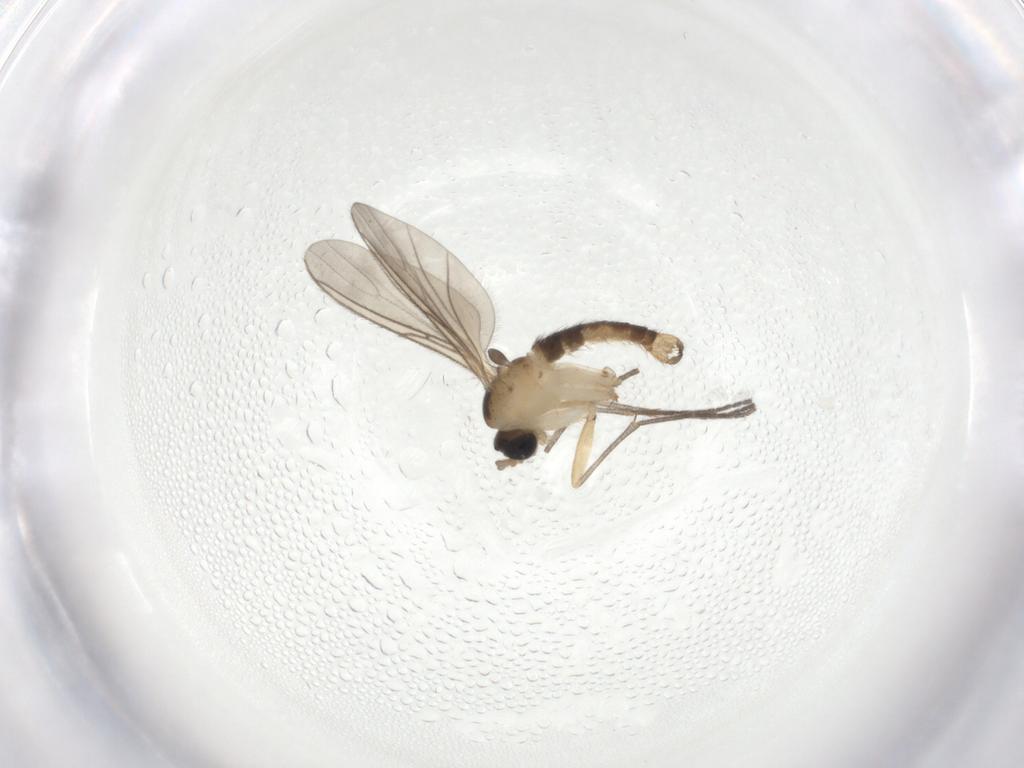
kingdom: Animalia
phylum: Arthropoda
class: Insecta
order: Diptera
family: Sciaridae
